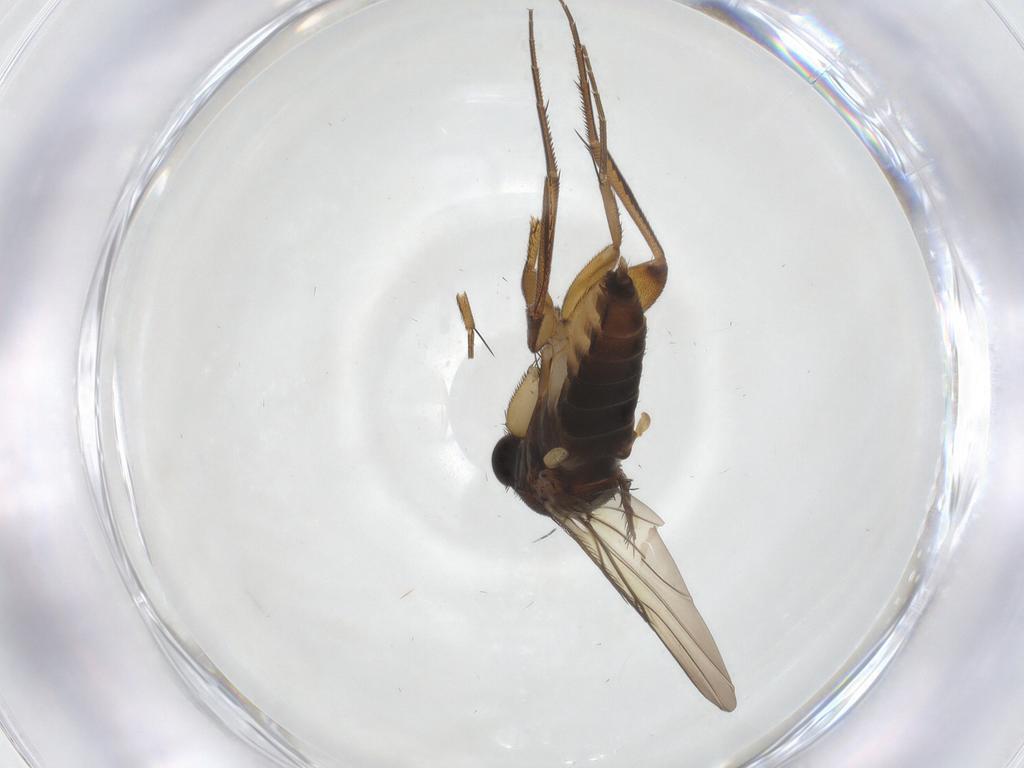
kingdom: Animalia
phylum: Arthropoda
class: Insecta
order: Diptera
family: Phoridae
